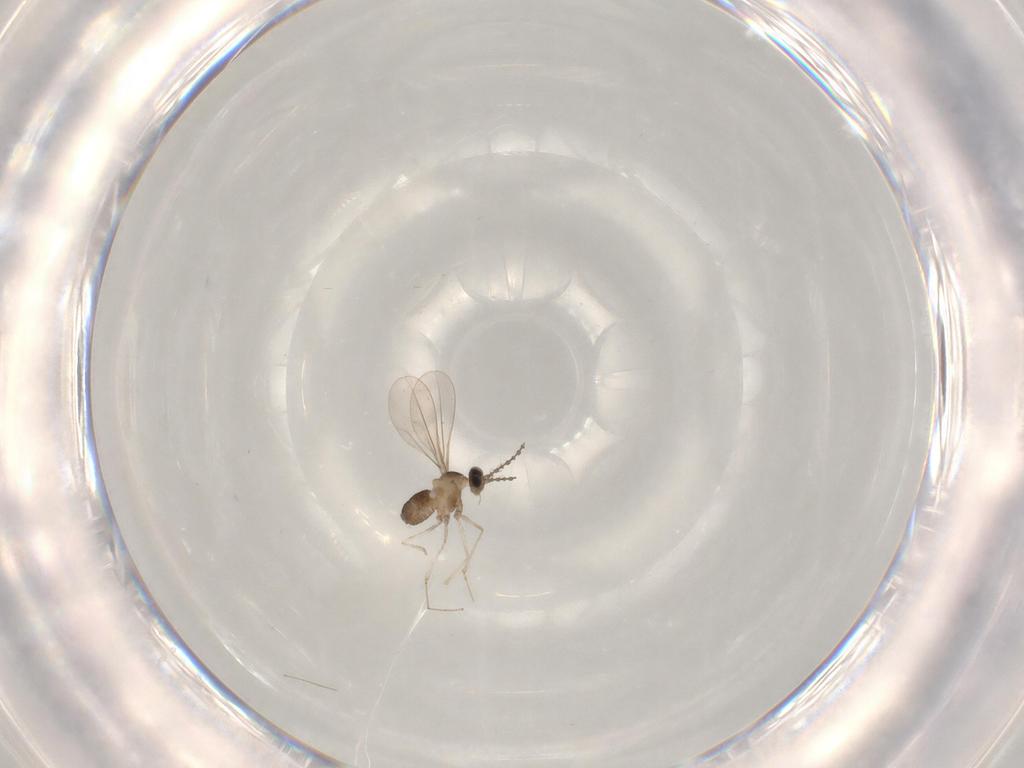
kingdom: Animalia
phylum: Arthropoda
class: Insecta
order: Diptera
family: Cecidomyiidae
